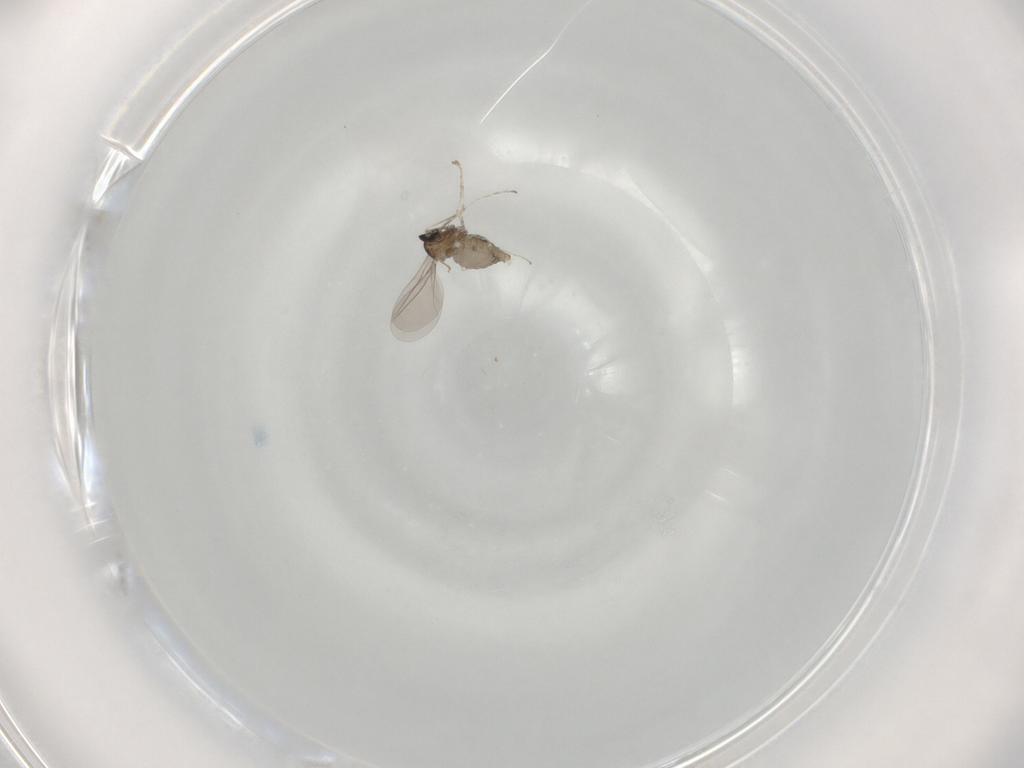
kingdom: Animalia
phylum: Arthropoda
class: Insecta
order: Diptera
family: Cecidomyiidae
